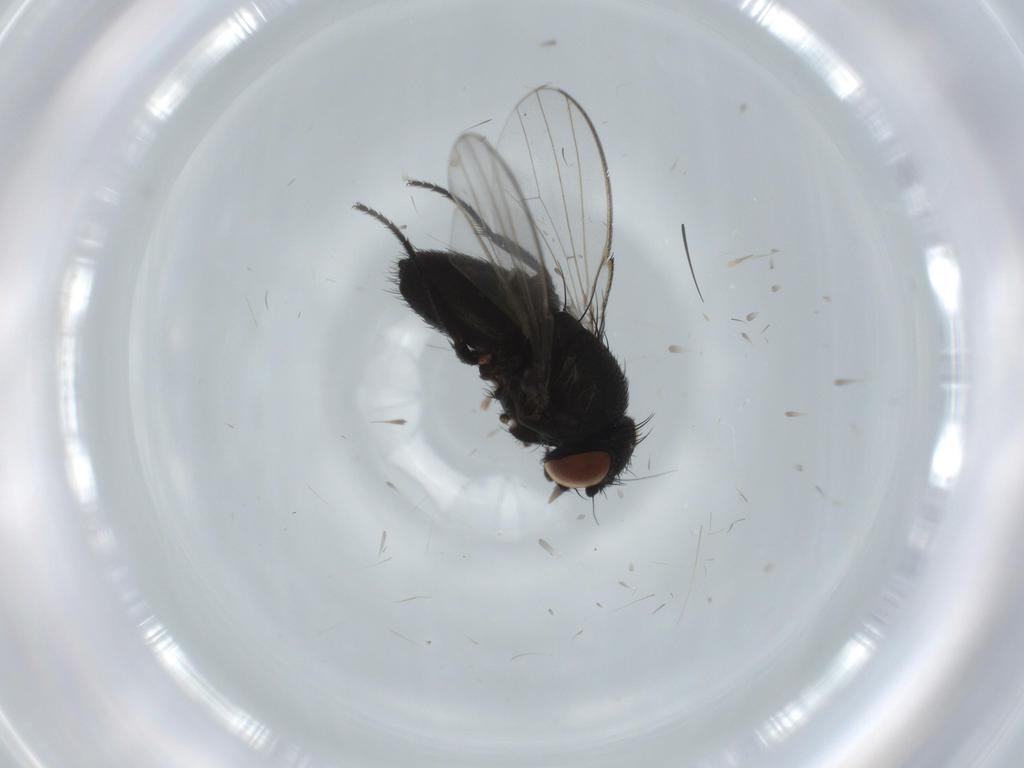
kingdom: Animalia
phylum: Arthropoda
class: Insecta
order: Diptera
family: Milichiidae
